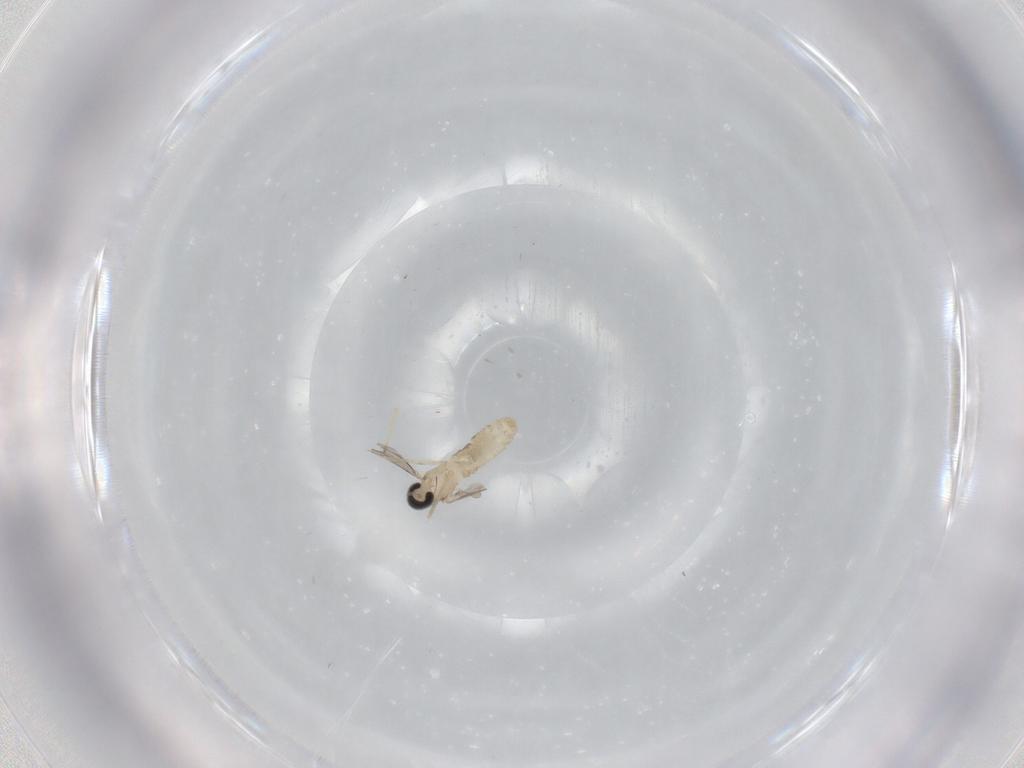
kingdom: Animalia
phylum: Arthropoda
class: Insecta
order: Diptera
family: Cecidomyiidae
